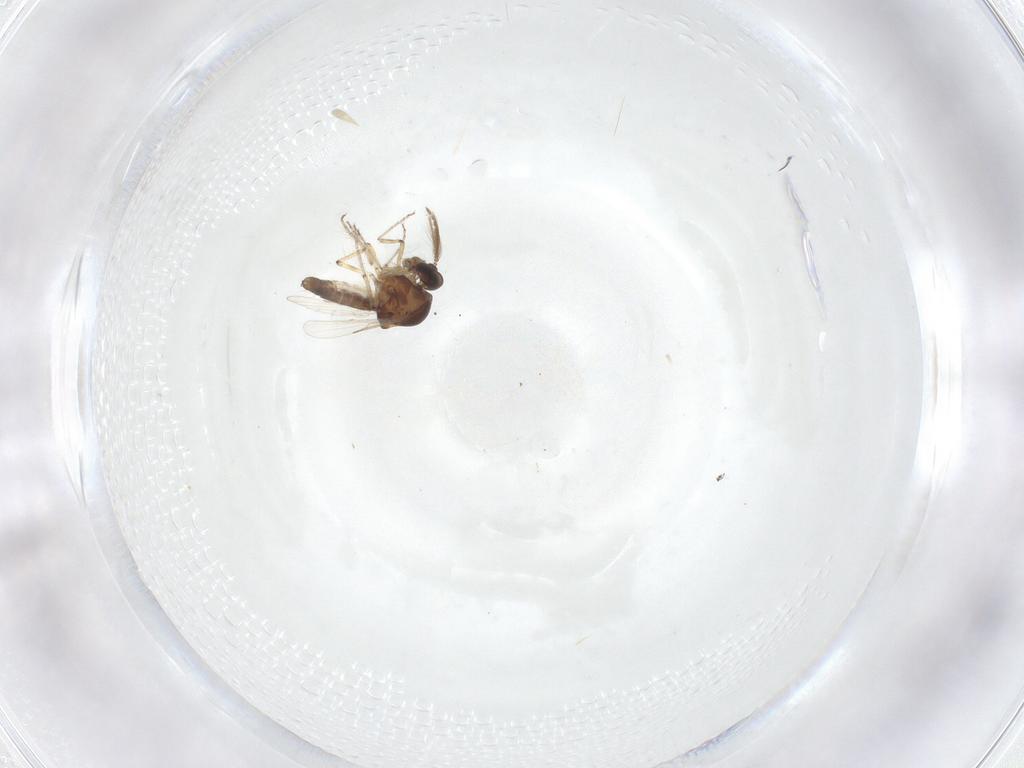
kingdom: Animalia
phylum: Arthropoda
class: Insecta
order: Diptera
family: Ceratopogonidae
